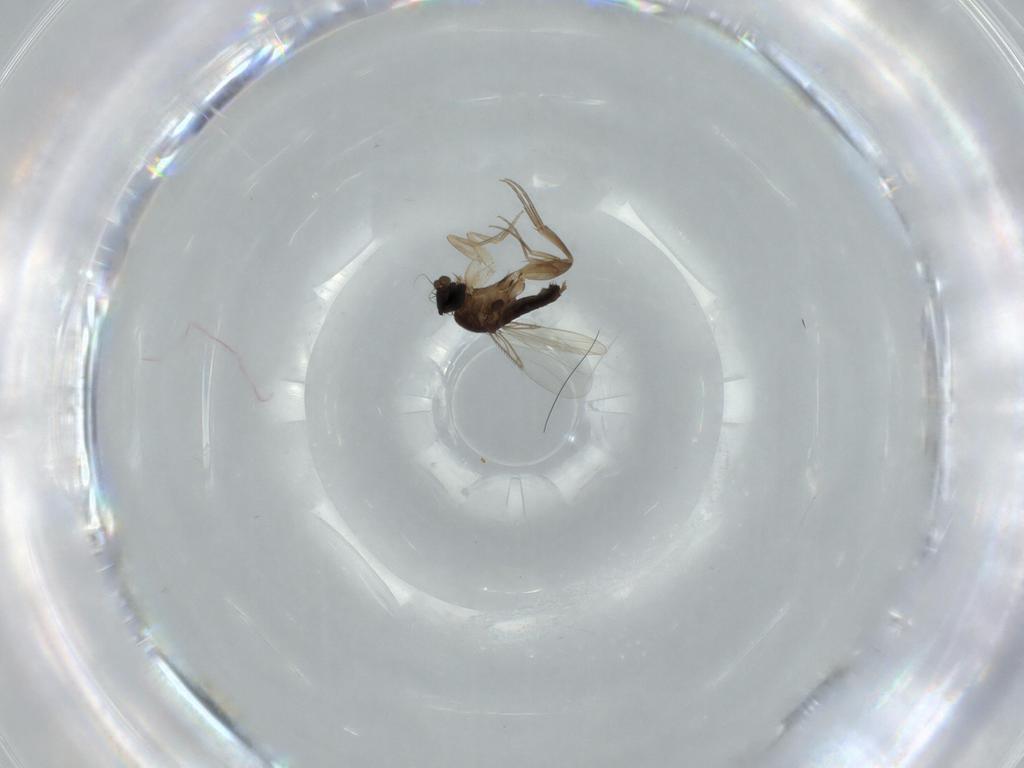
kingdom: Animalia
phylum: Arthropoda
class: Insecta
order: Diptera
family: Phoridae
